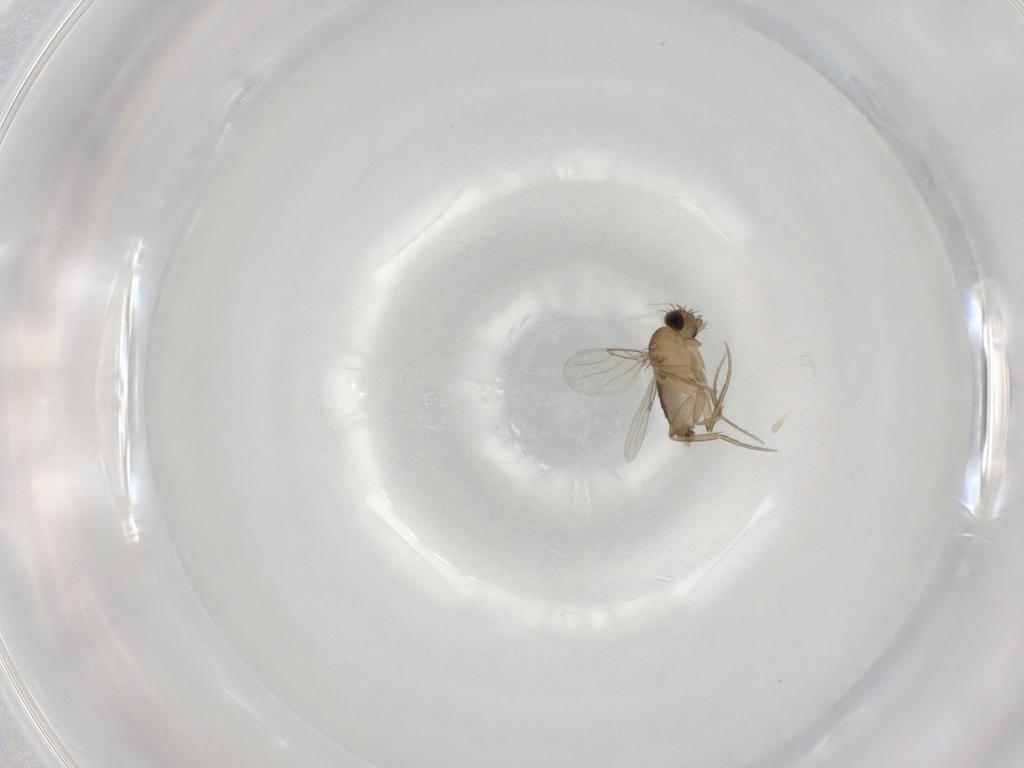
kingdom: Animalia
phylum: Arthropoda
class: Insecta
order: Diptera
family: Phoridae
